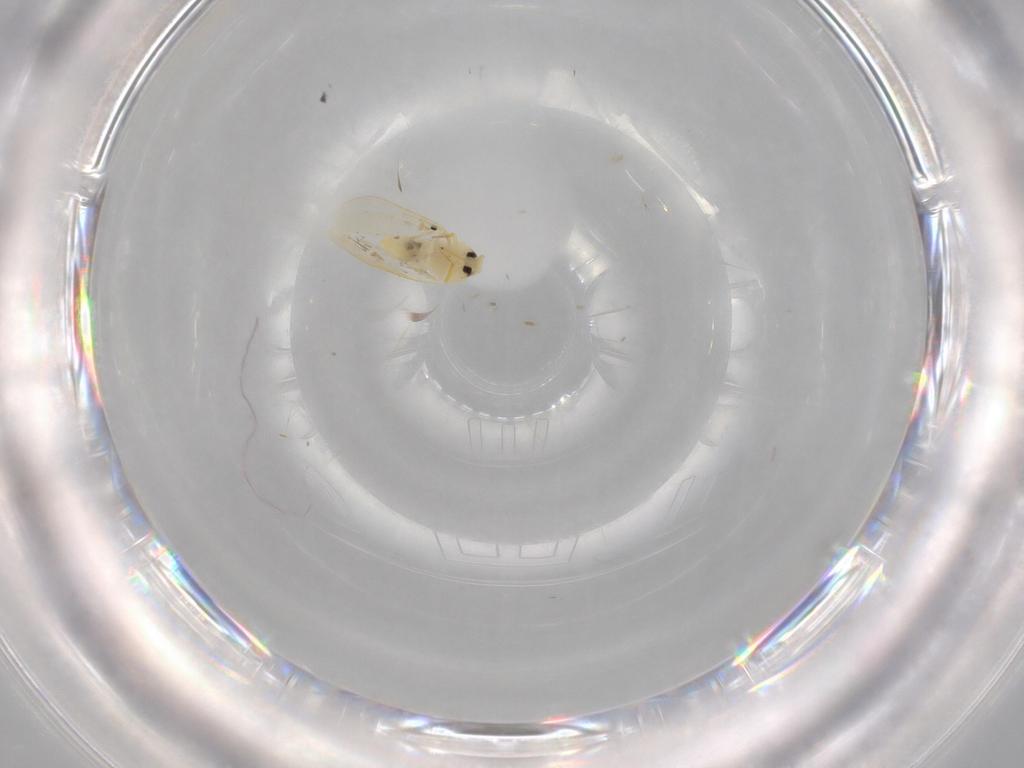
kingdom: Animalia
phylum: Arthropoda
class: Insecta
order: Hemiptera
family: Aleyrodidae
